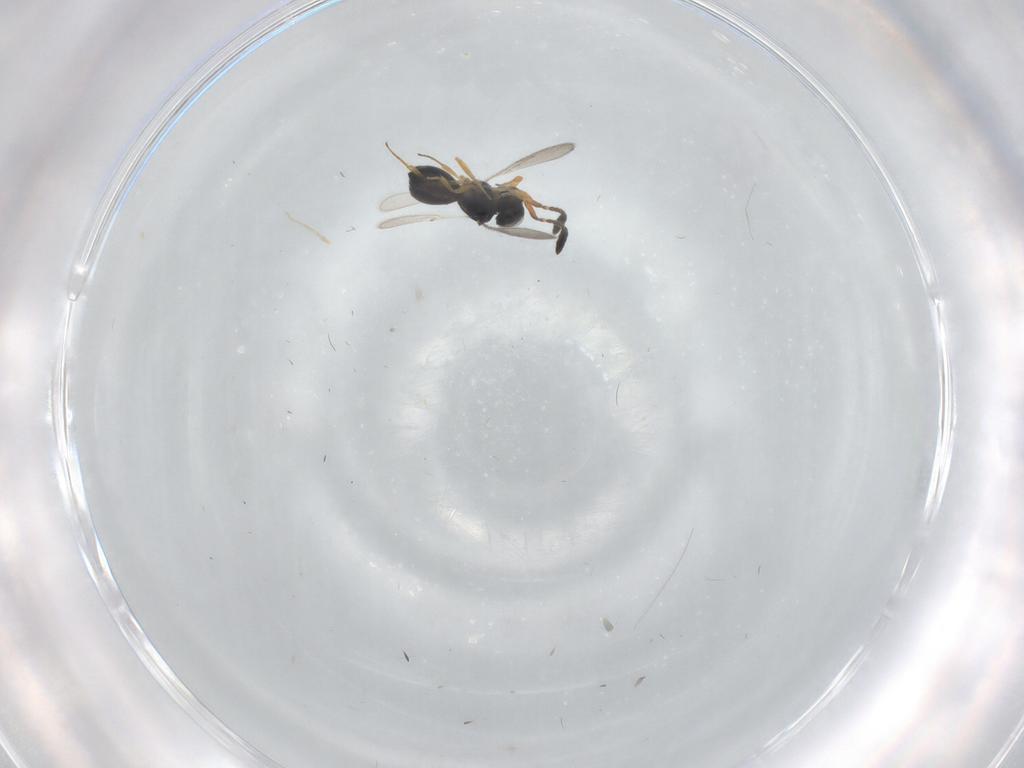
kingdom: Animalia
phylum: Arthropoda
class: Insecta
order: Hymenoptera
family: Scelionidae
